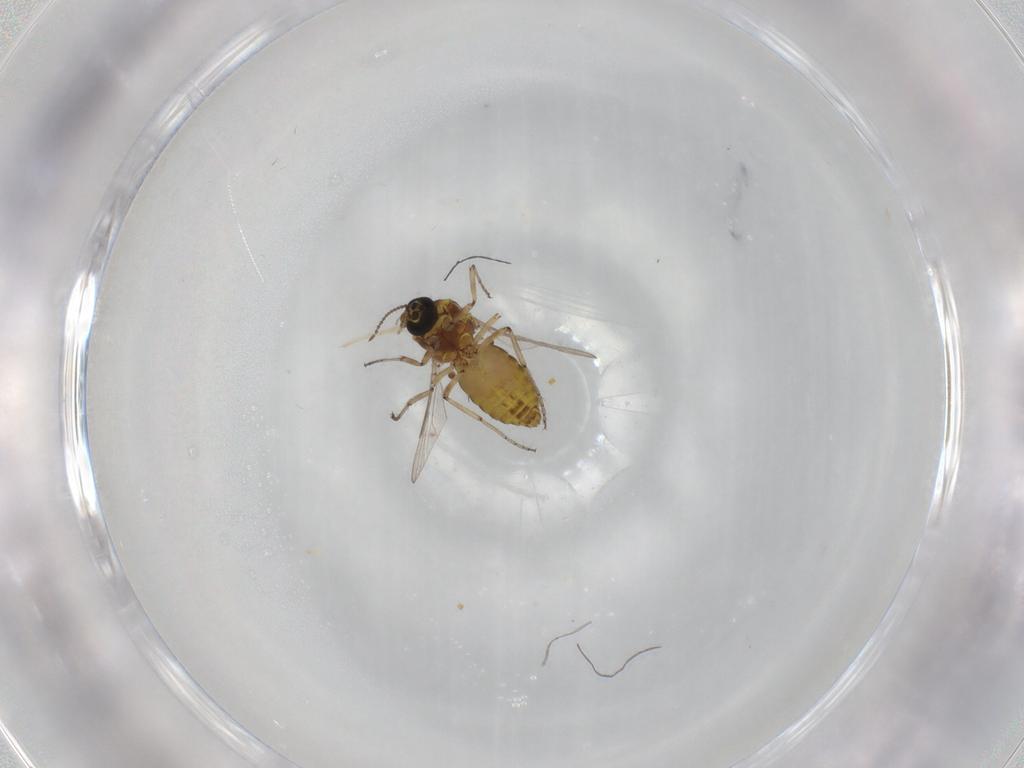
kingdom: Animalia
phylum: Arthropoda
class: Insecta
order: Diptera
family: Ceratopogonidae
